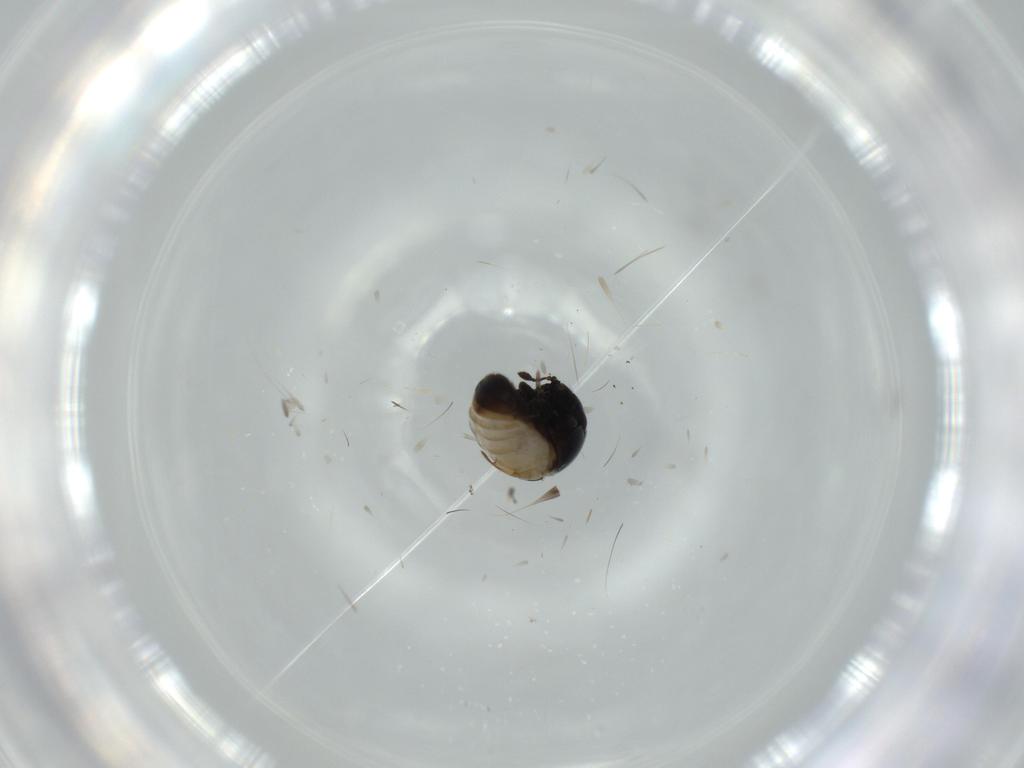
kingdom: Animalia
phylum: Arthropoda
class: Insecta
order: Coleoptera
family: Cybocephalidae
